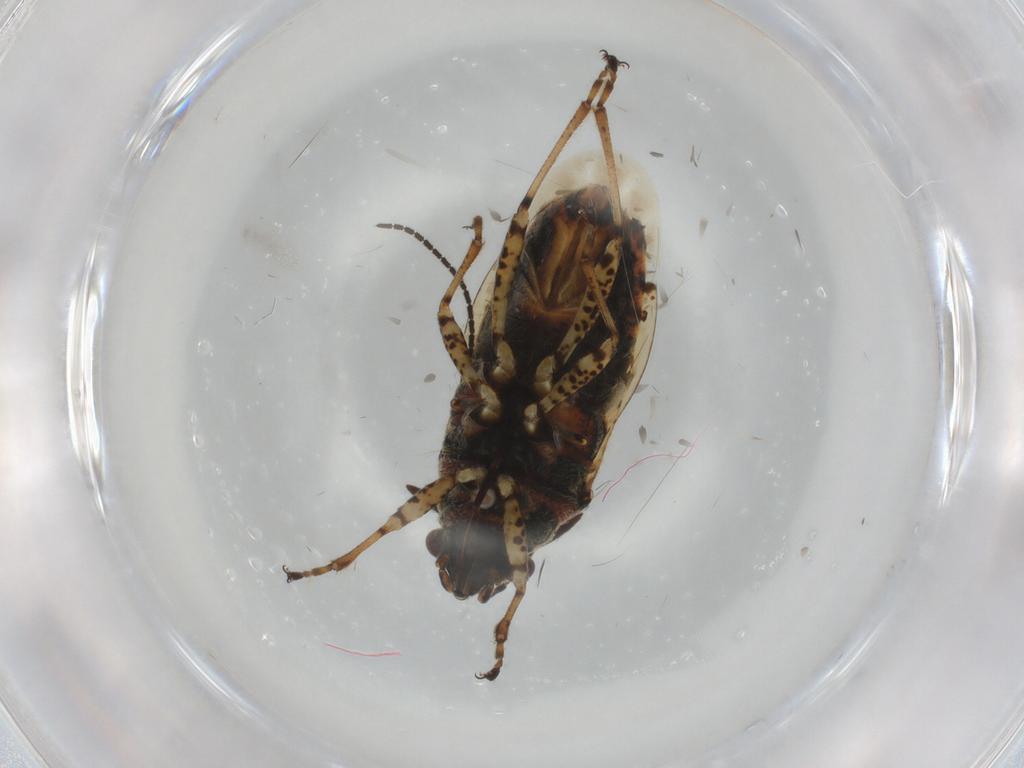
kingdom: Animalia
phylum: Arthropoda
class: Insecta
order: Hemiptera
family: Lygaeidae
